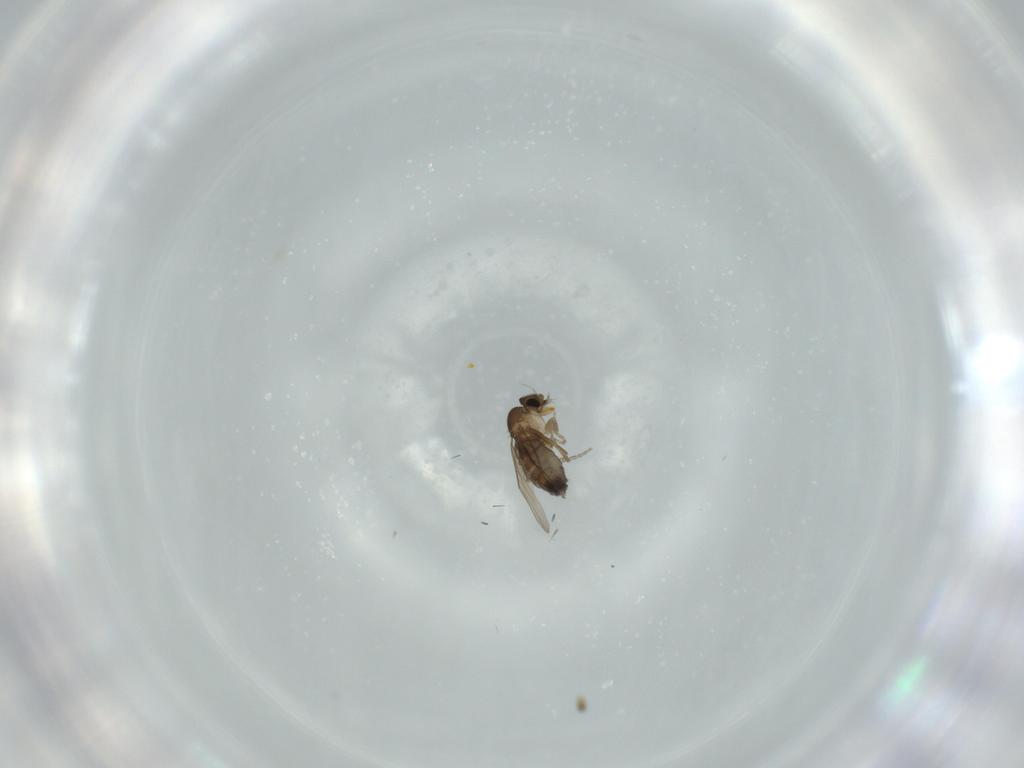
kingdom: Animalia
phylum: Arthropoda
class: Insecta
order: Diptera
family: Phoridae
